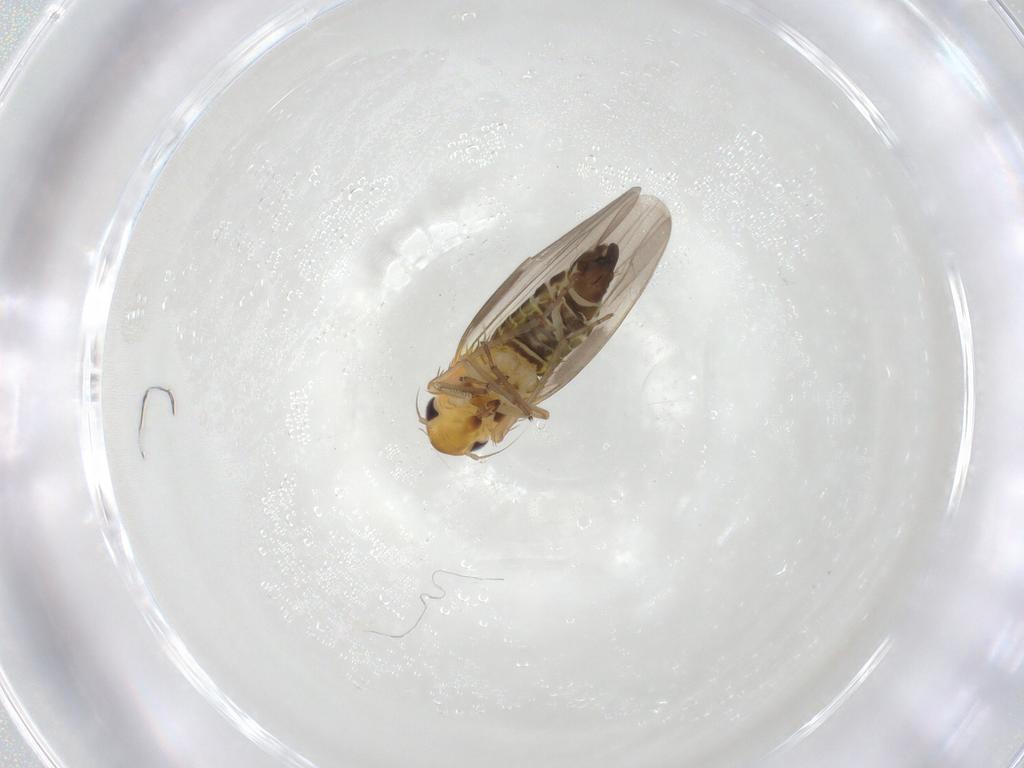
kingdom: Animalia
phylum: Arthropoda
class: Insecta
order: Hemiptera
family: Cicadellidae
